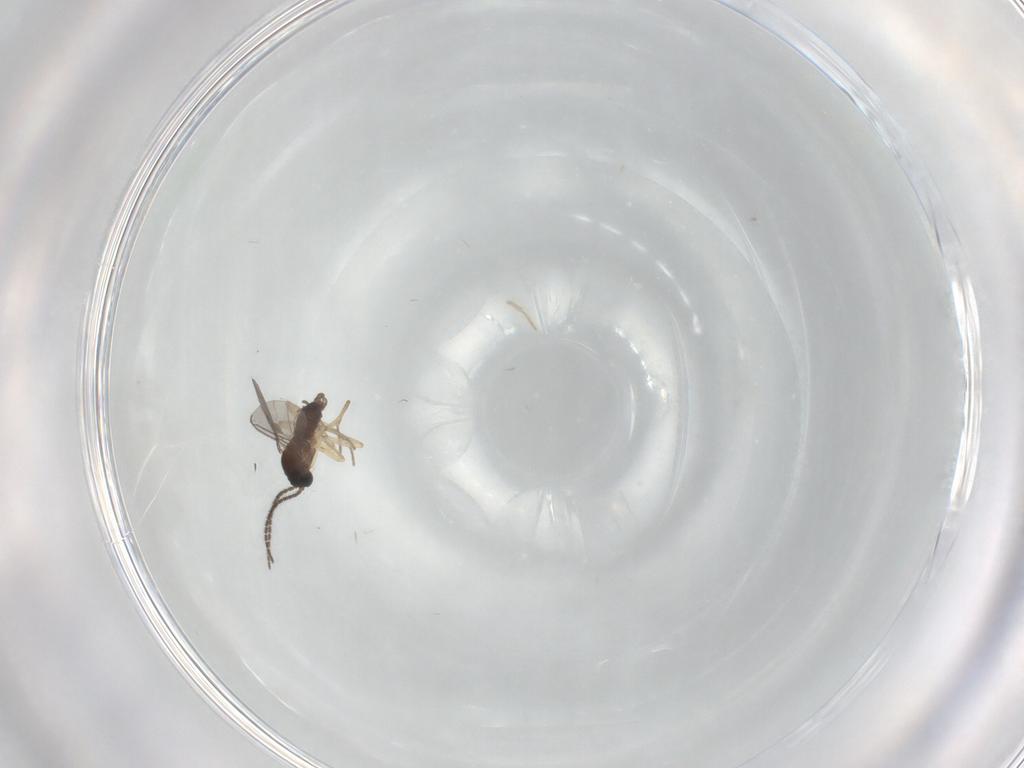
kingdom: Animalia
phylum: Arthropoda
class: Insecta
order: Diptera
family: Sciaridae
